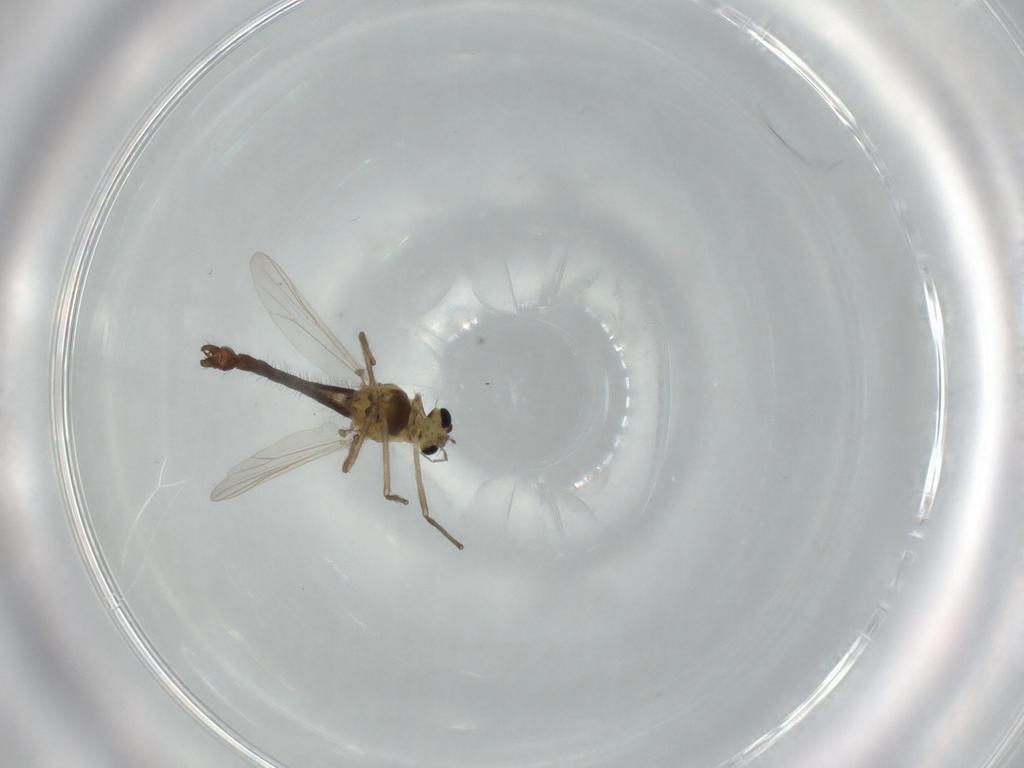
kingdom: Animalia
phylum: Arthropoda
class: Insecta
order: Diptera
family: Chironomidae
